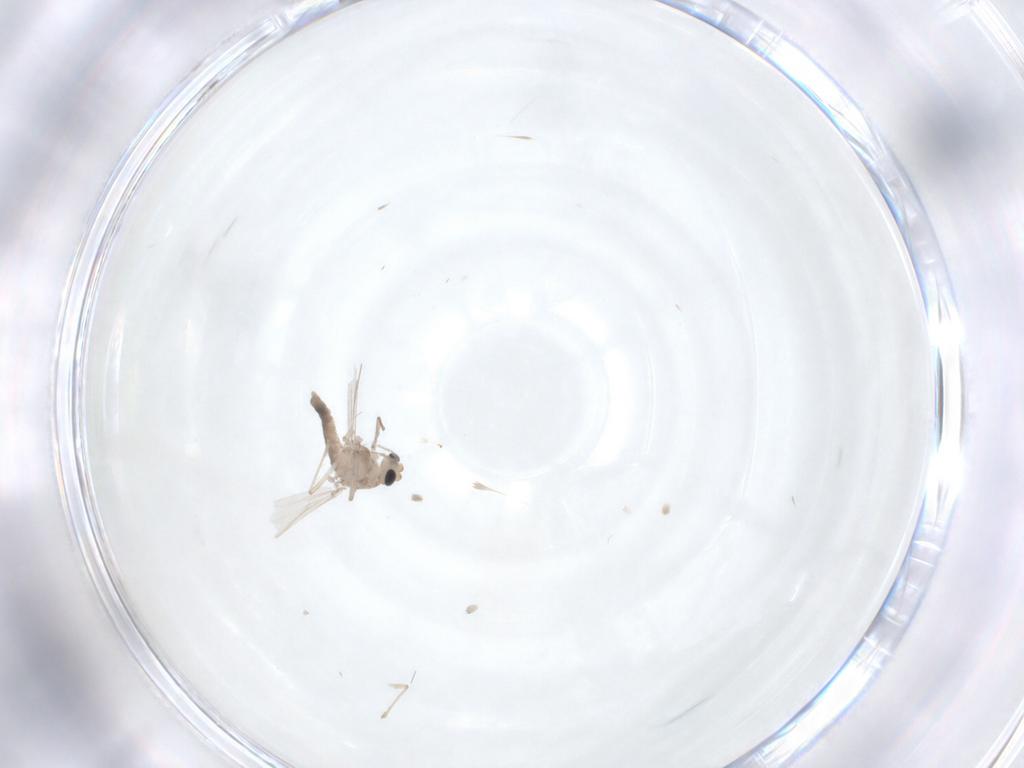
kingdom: Animalia
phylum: Arthropoda
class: Insecta
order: Diptera
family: Chironomidae
